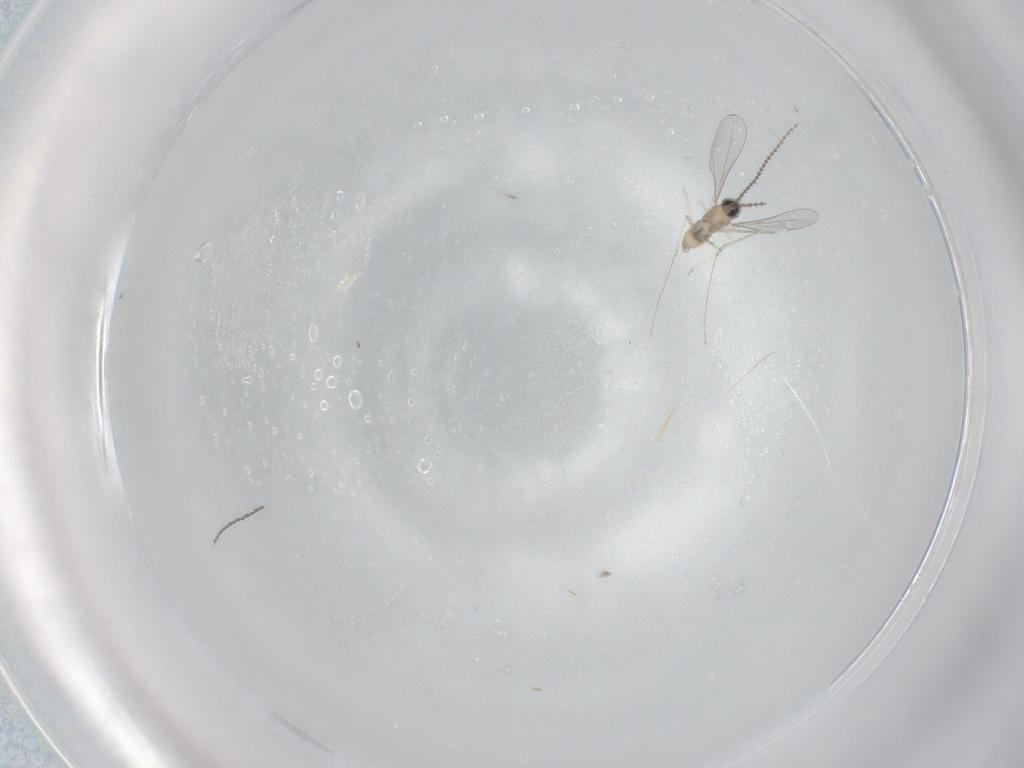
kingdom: Animalia
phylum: Arthropoda
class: Insecta
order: Diptera
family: Cecidomyiidae
